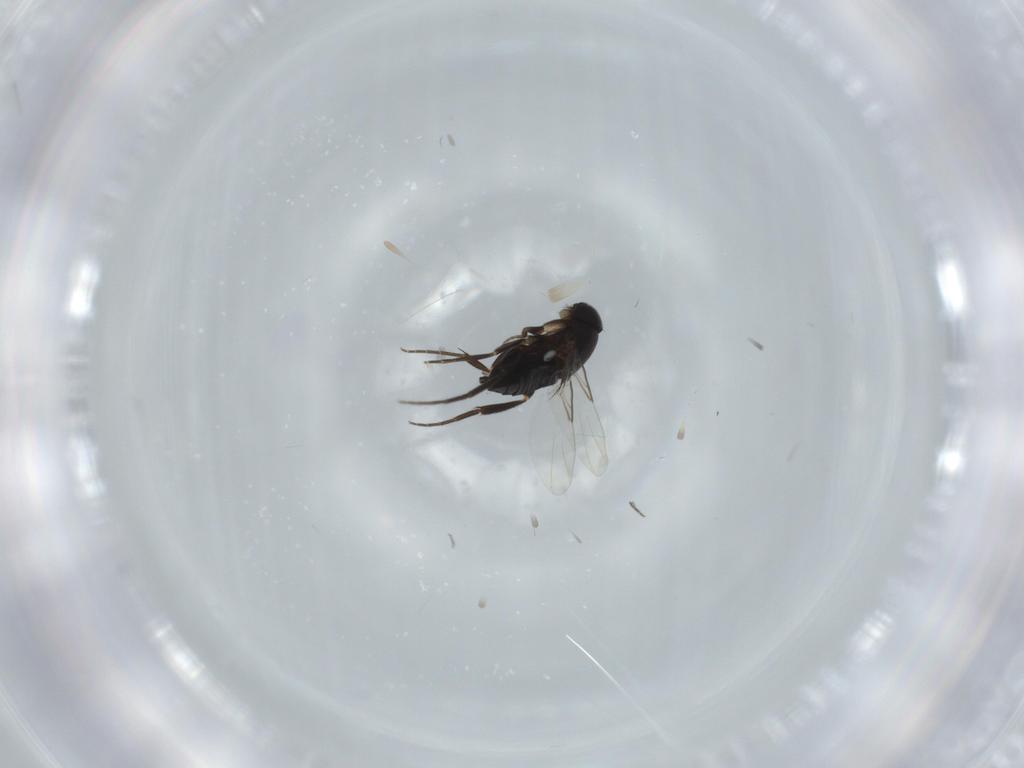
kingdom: Animalia
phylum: Arthropoda
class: Insecta
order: Diptera
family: Phoridae
